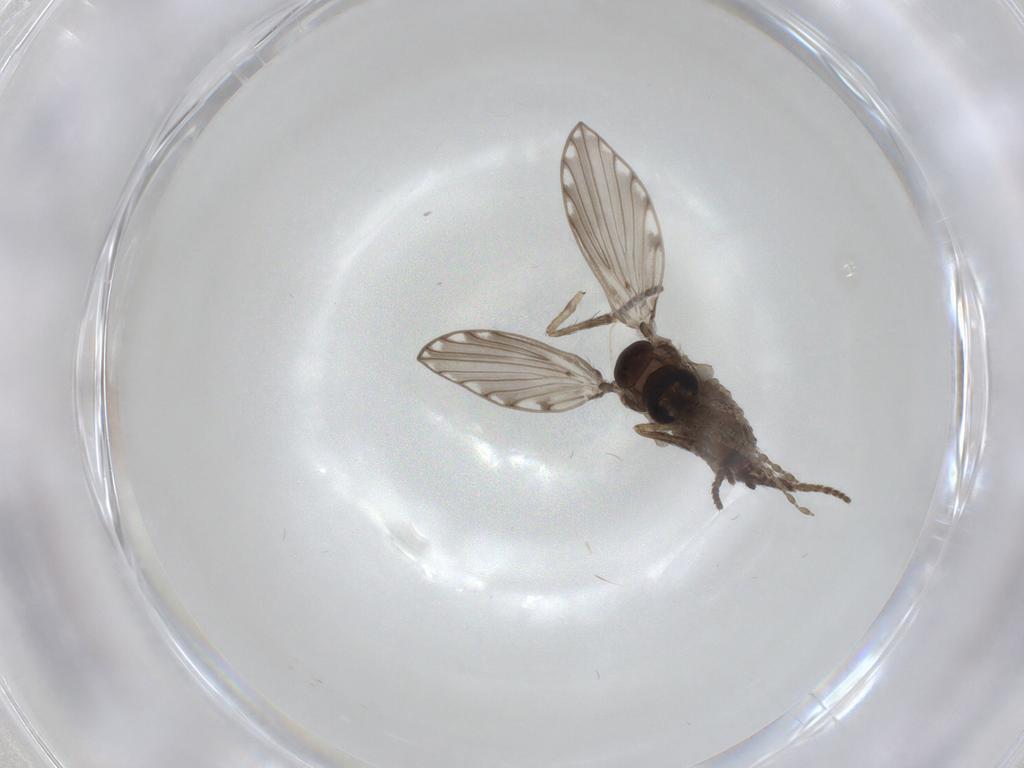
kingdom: Animalia
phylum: Arthropoda
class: Insecta
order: Diptera
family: Psychodidae
